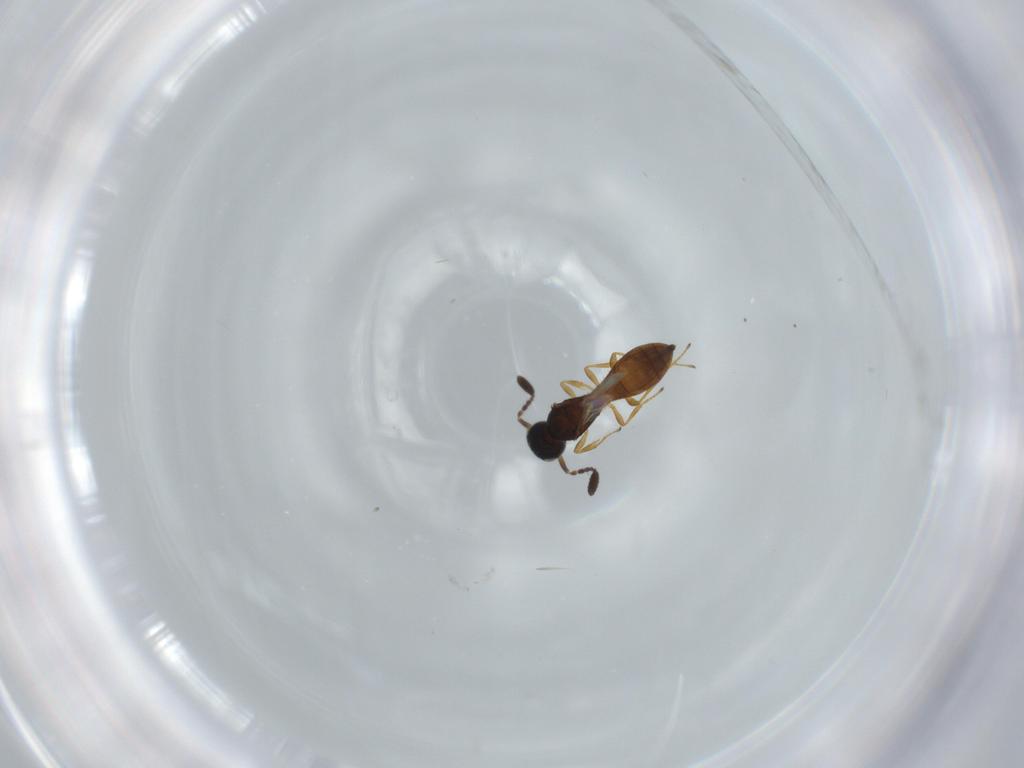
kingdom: Animalia
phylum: Arthropoda
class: Insecta
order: Hymenoptera
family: Scelionidae
